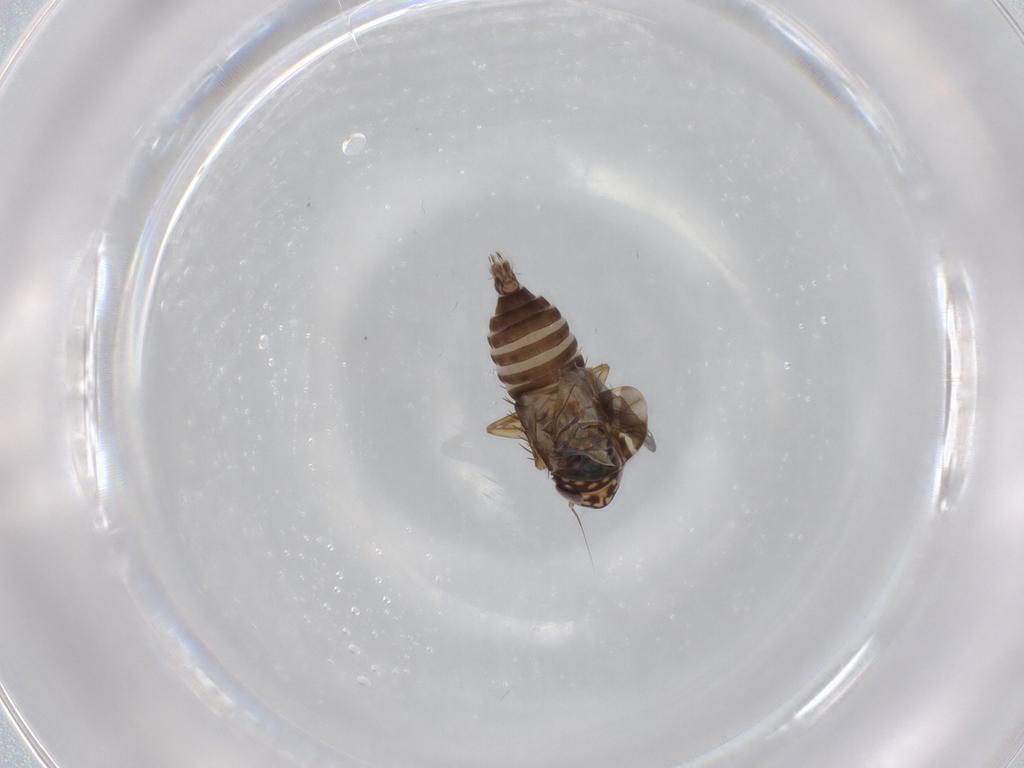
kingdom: Animalia
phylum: Arthropoda
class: Insecta
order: Hemiptera
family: Cicadellidae
